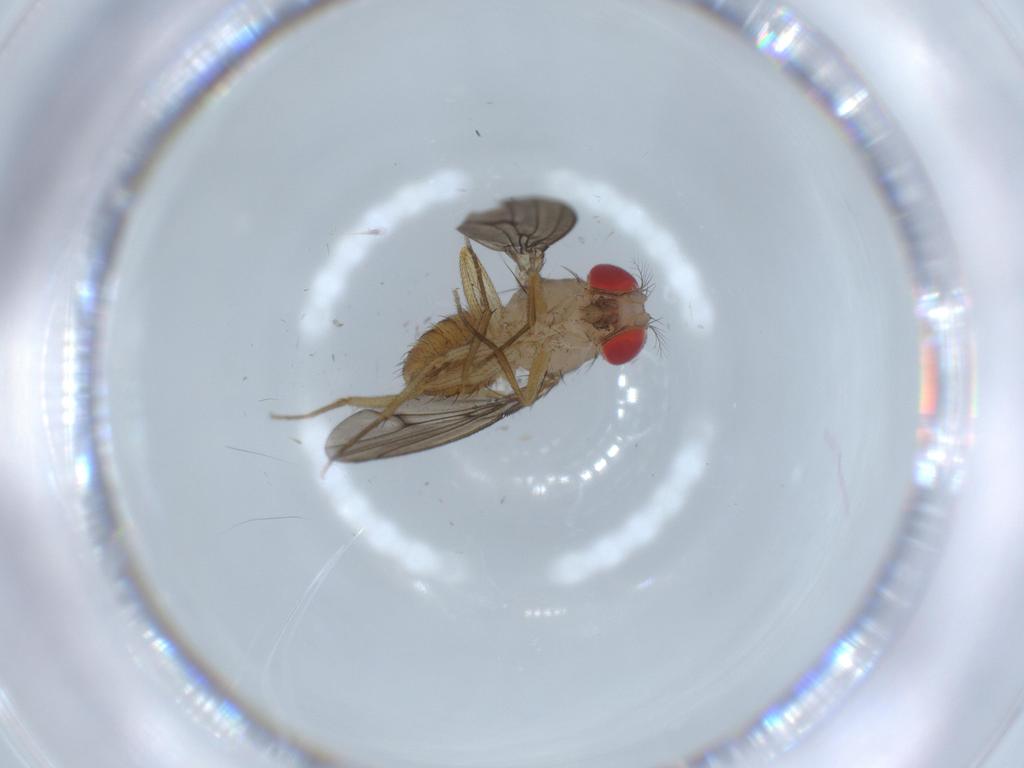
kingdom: Animalia
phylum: Arthropoda
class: Insecta
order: Diptera
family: Drosophilidae
